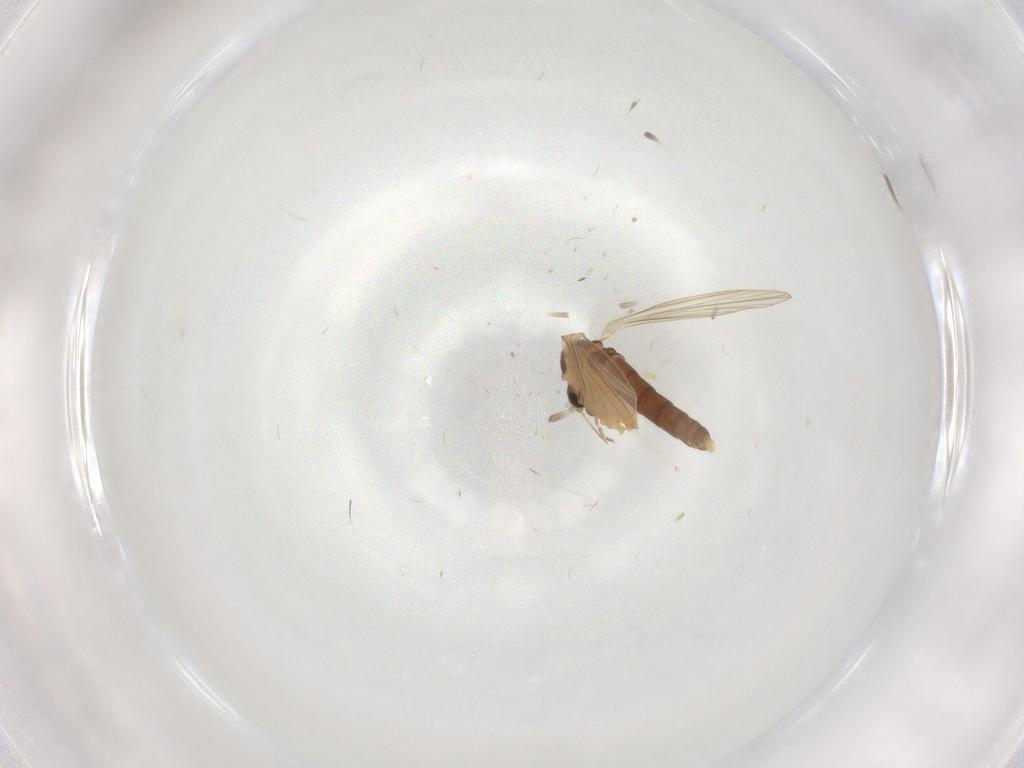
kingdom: Animalia
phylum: Arthropoda
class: Insecta
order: Diptera
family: Psychodidae
